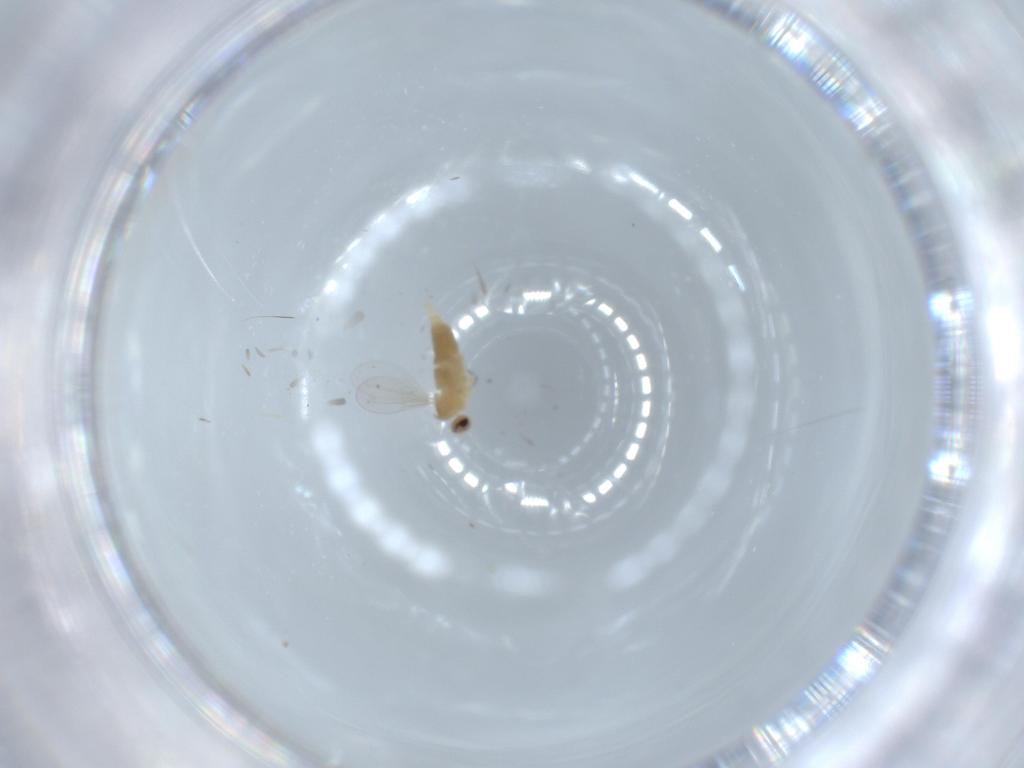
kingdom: Animalia
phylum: Arthropoda
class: Insecta
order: Diptera
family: Cecidomyiidae
